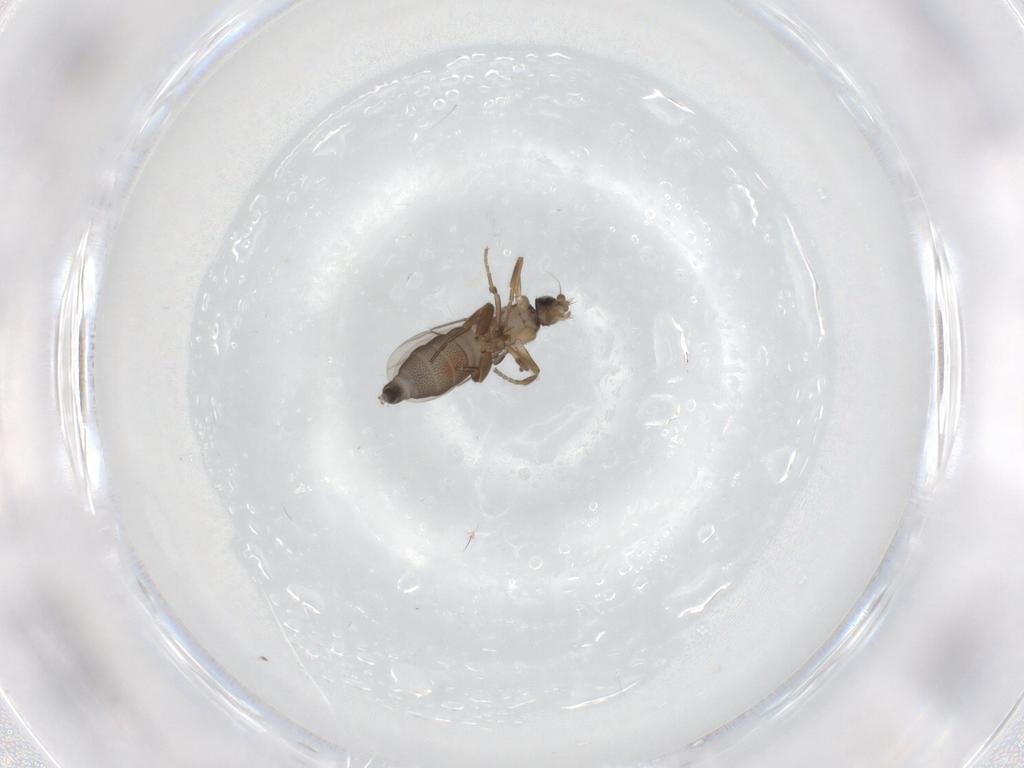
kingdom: Animalia
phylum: Arthropoda
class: Insecta
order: Diptera
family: Phoridae
